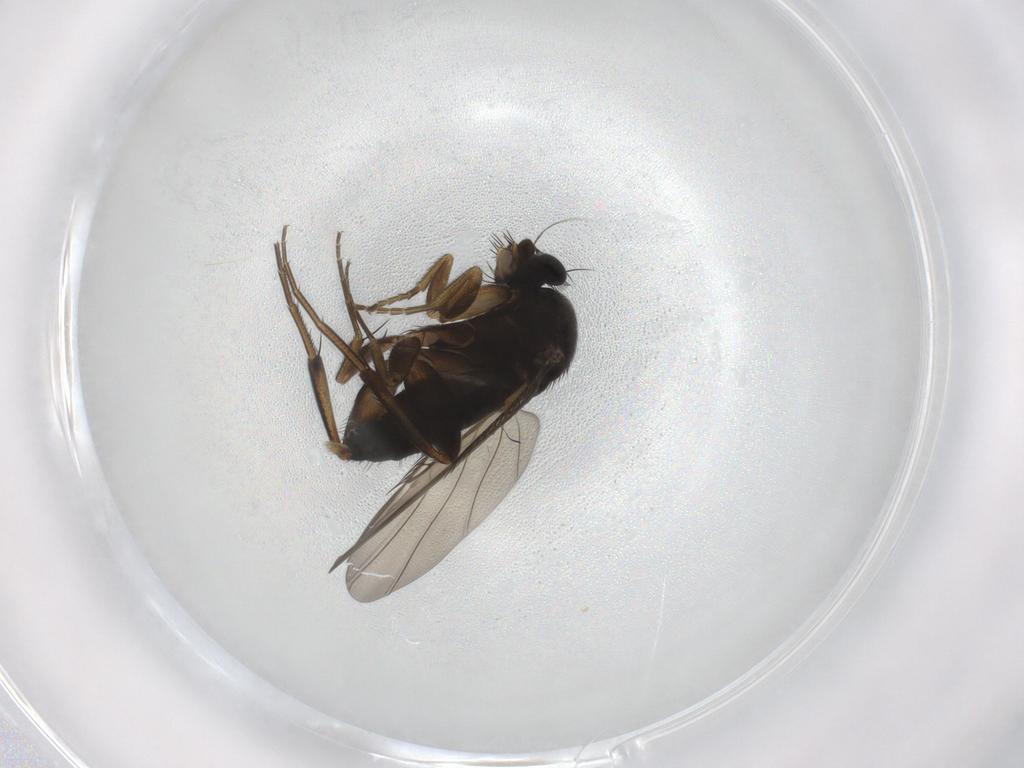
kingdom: Animalia
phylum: Arthropoda
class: Insecta
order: Diptera
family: Phoridae
